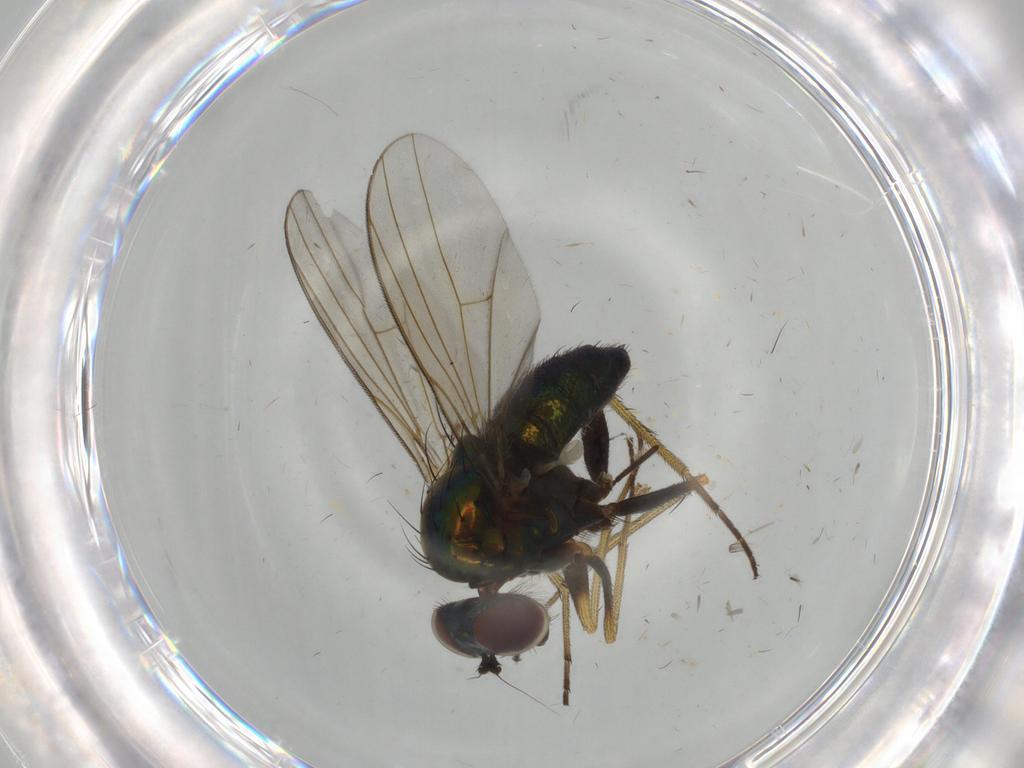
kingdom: Animalia
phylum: Arthropoda
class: Insecta
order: Diptera
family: Dolichopodidae
